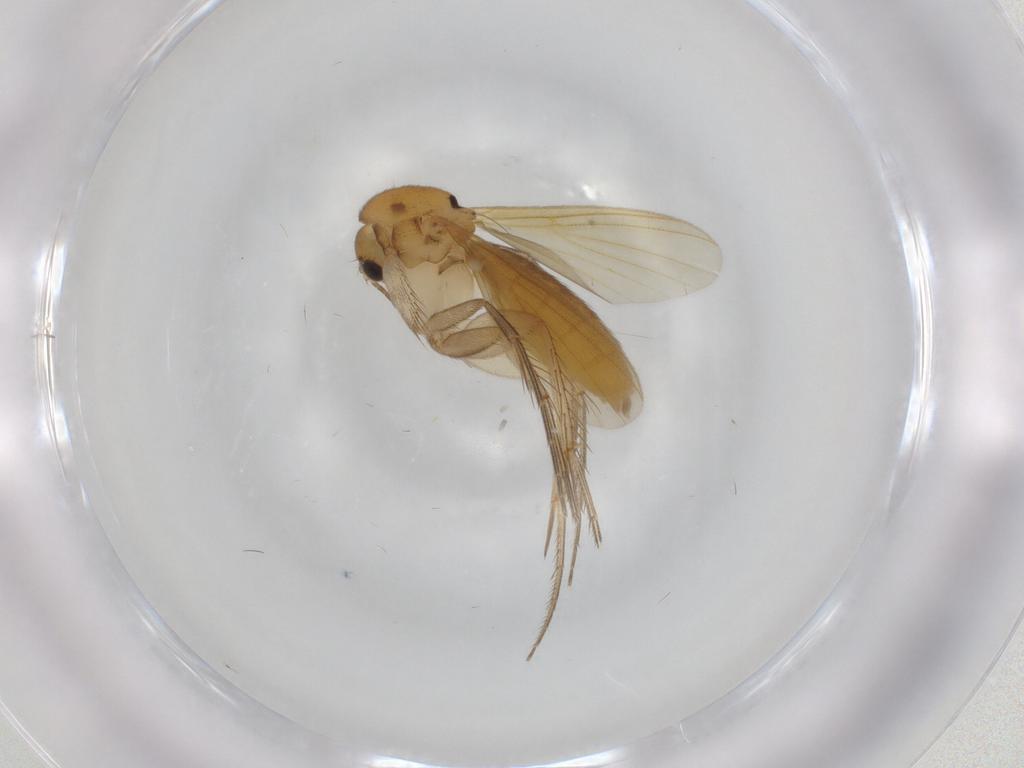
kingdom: Animalia
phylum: Arthropoda
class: Insecta
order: Diptera
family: Mycetophilidae
